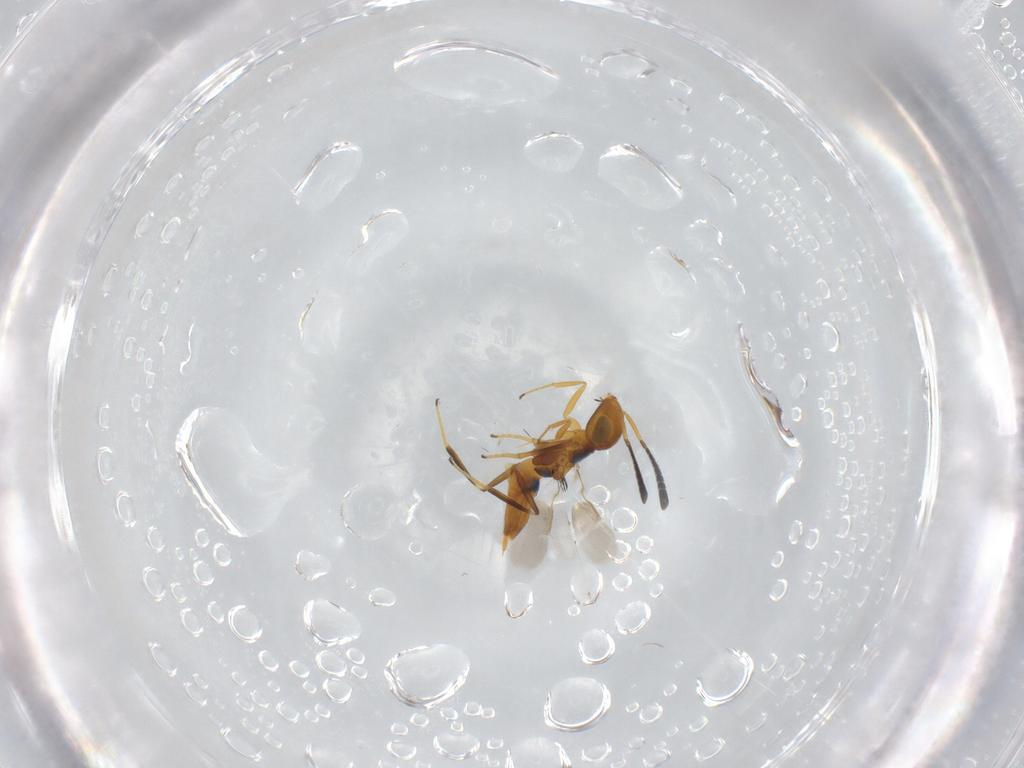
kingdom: Animalia
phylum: Arthropoda
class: Insecta
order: Hymenoptera
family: Encyrtidae
